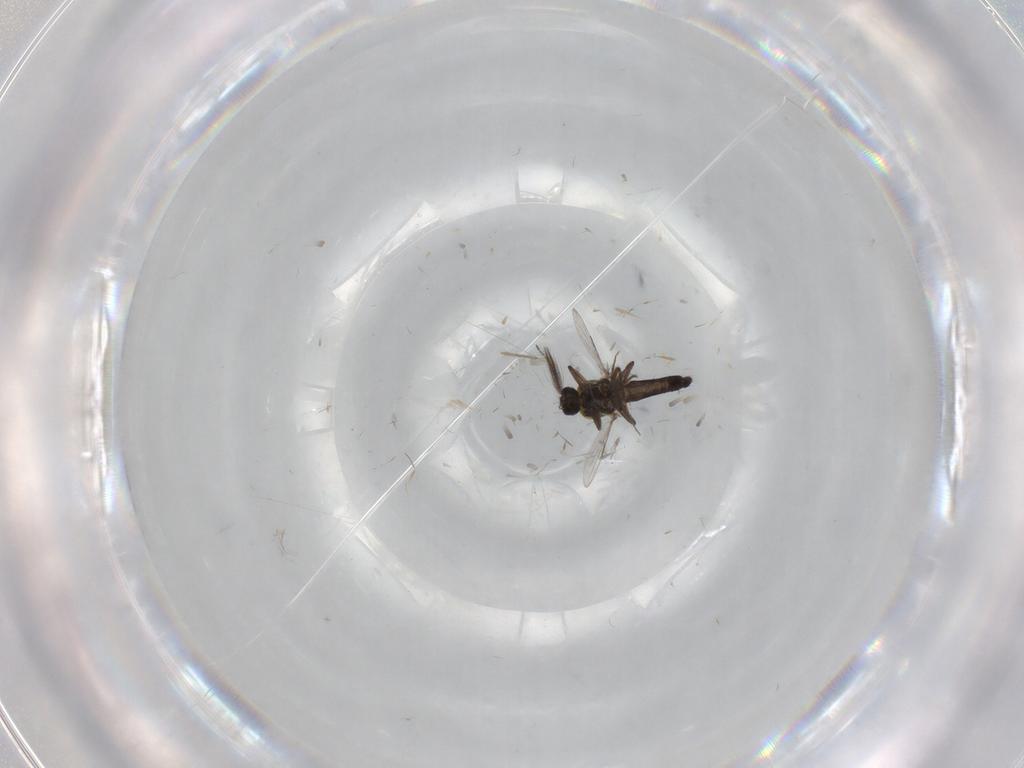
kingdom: Animalia
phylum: Arthropoda
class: Insecta
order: Diptera
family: Ceratopogonidae
